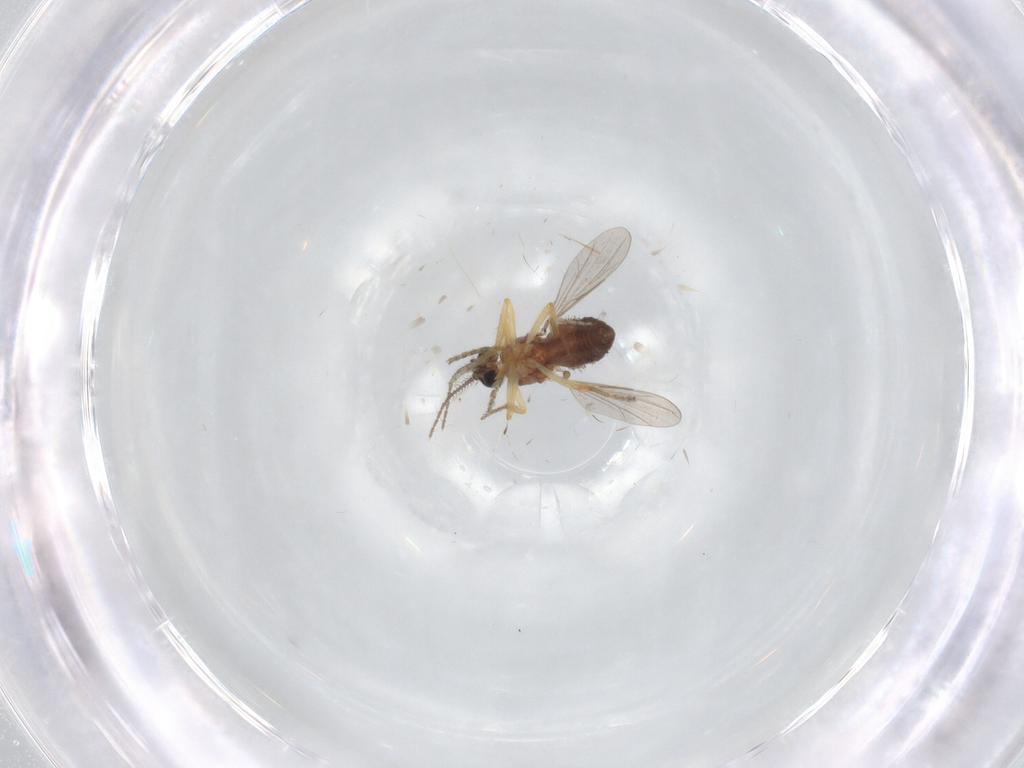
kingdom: Animalia
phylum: Arthropoda
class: Insecta
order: Diptera
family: Ceratopogonidae
